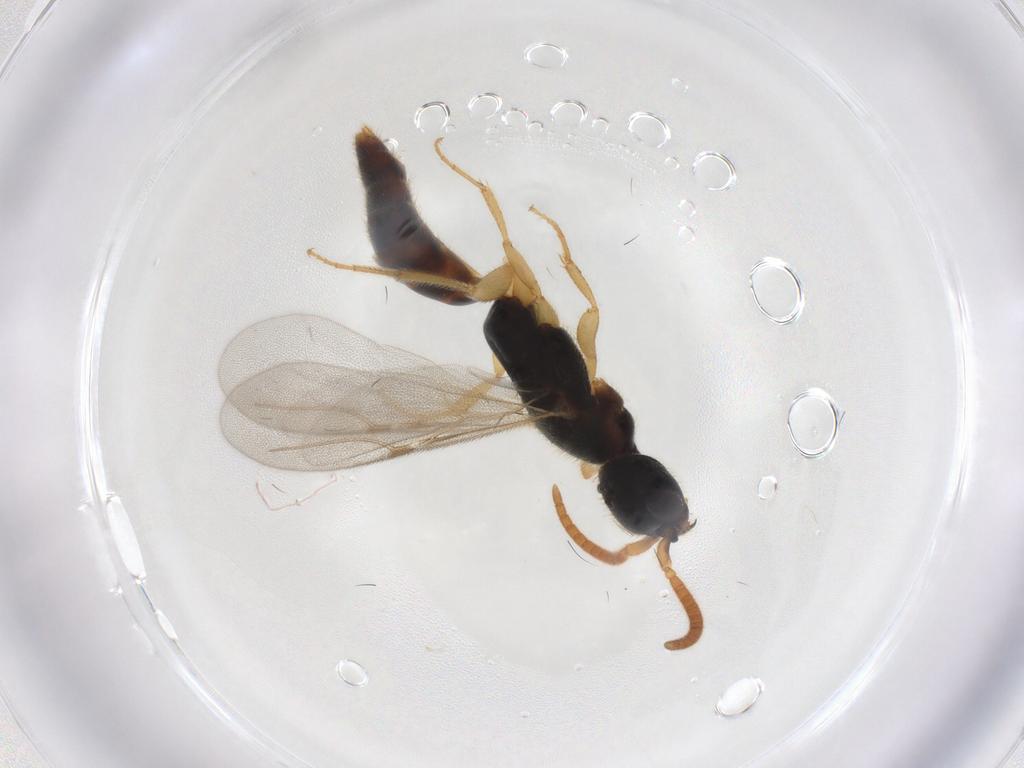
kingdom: Animalia
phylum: Arthropoda
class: Insecta
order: Hymenoptera
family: Bethylidae
